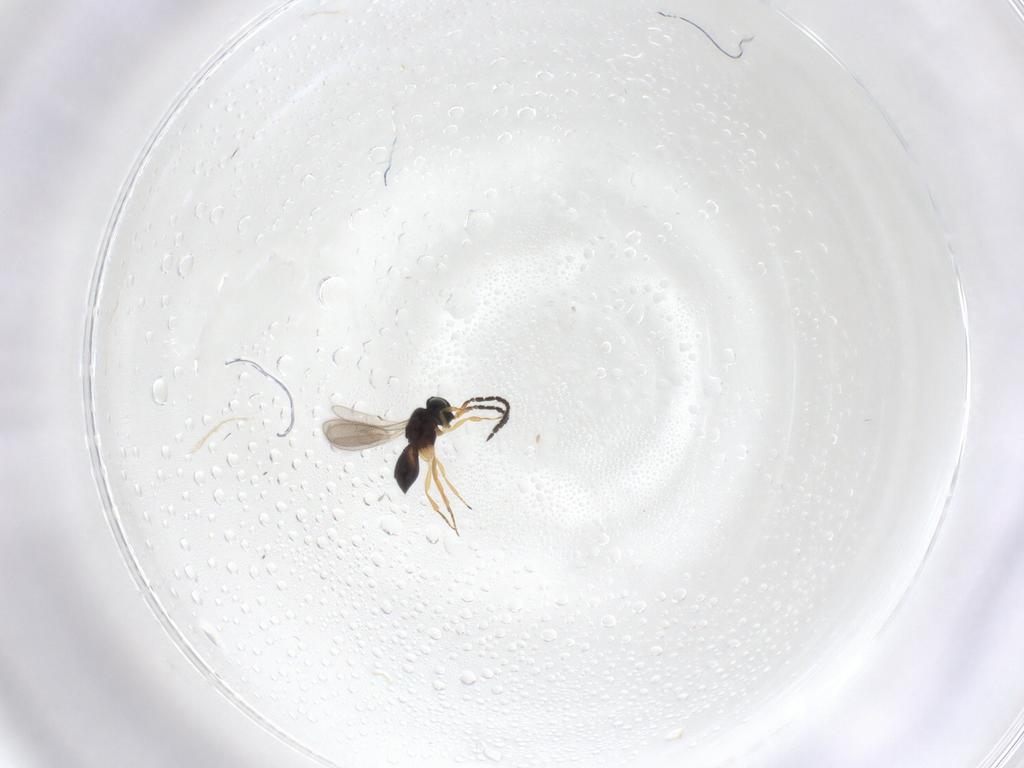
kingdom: Animalia
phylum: Arthropoda
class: Insecta
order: Hymenoptera
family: Scelionidae
